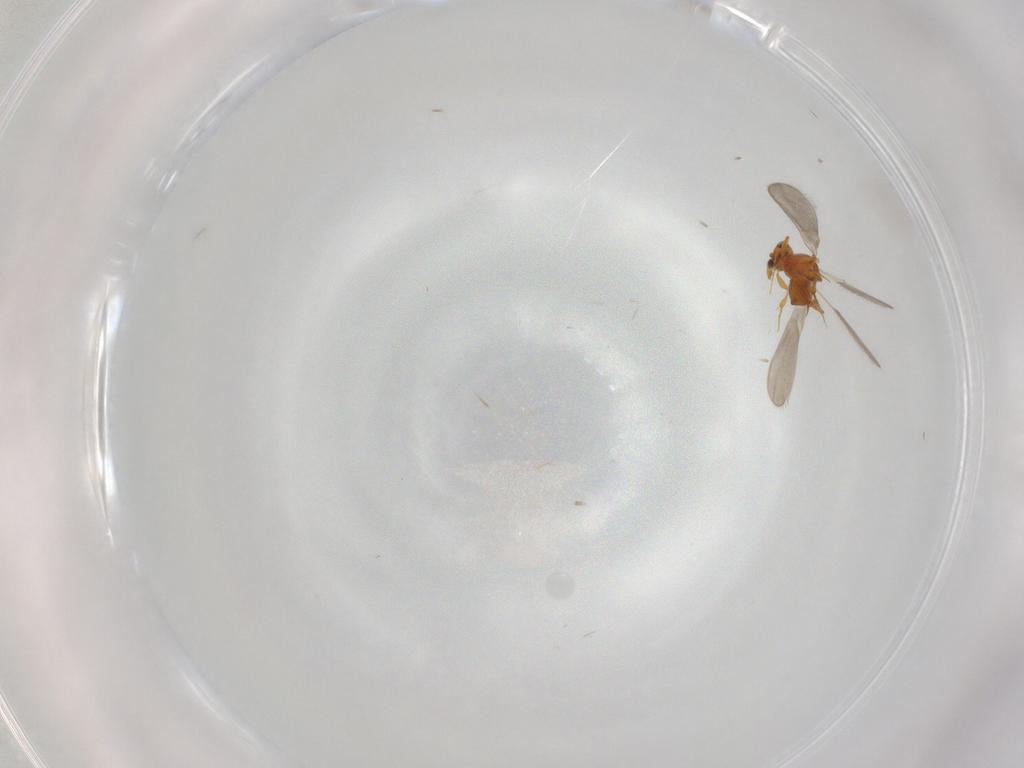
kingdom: Animalia
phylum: Arthropoda
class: Insecta
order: Hymenoptera
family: Platygastridae
